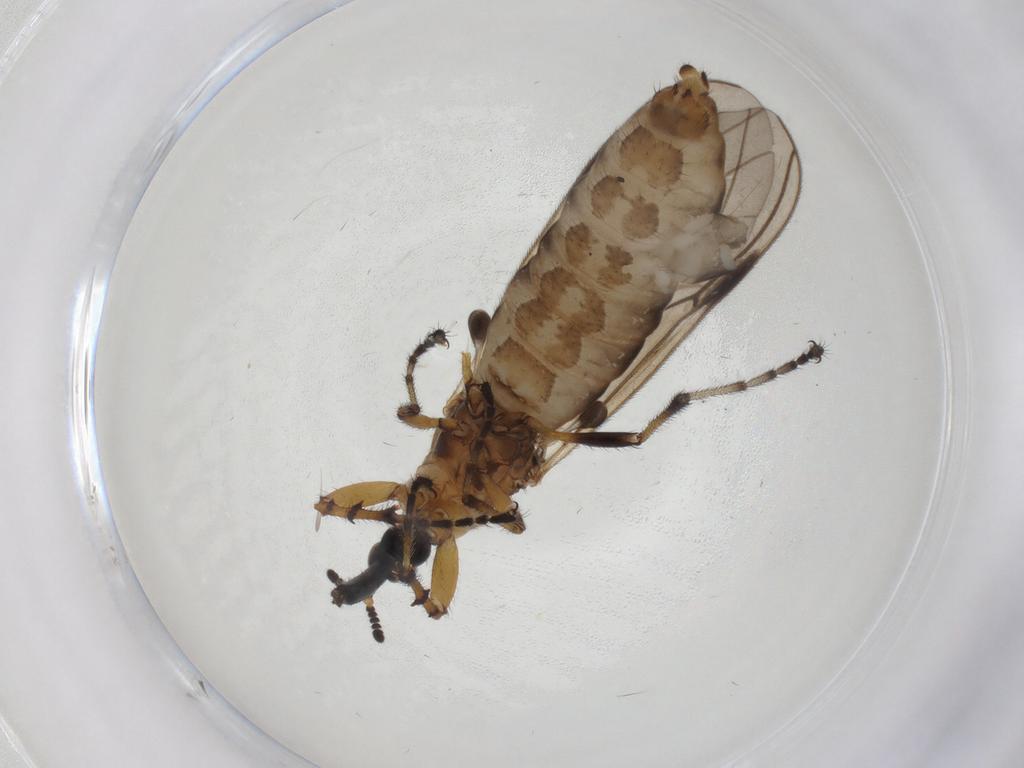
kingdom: Animalia
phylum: Arthropoda
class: Insecta
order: Diptera
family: Bibionidae
